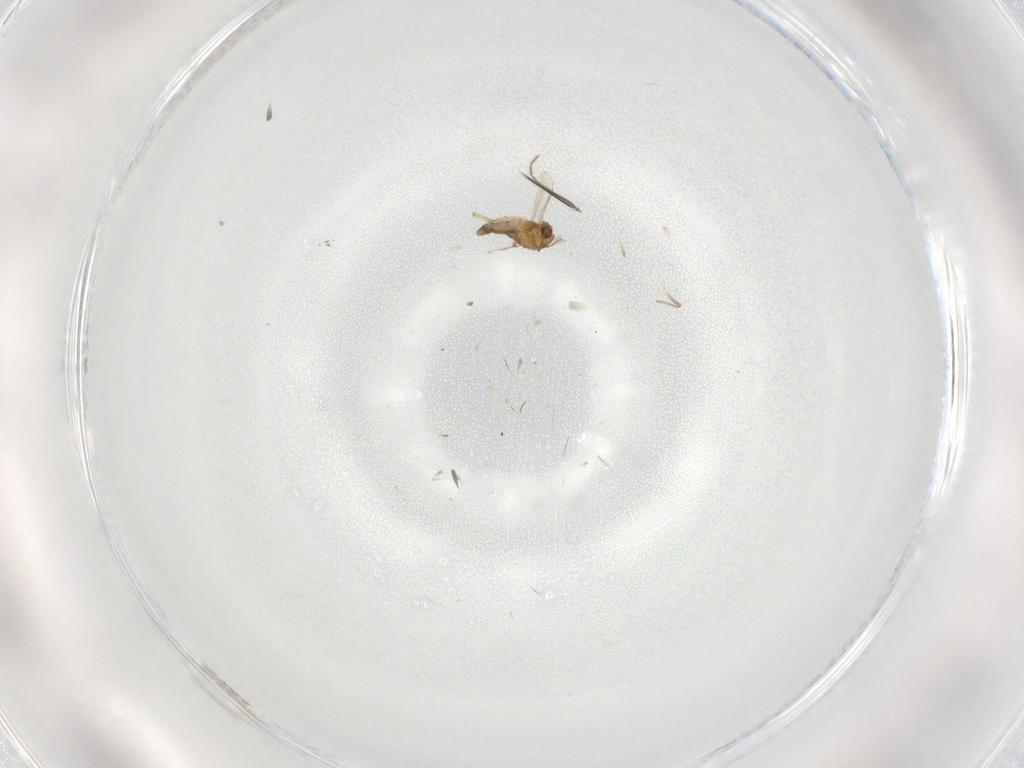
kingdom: Animalia
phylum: Arthropoda
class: Insecta
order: Diptera
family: Chironomidae
